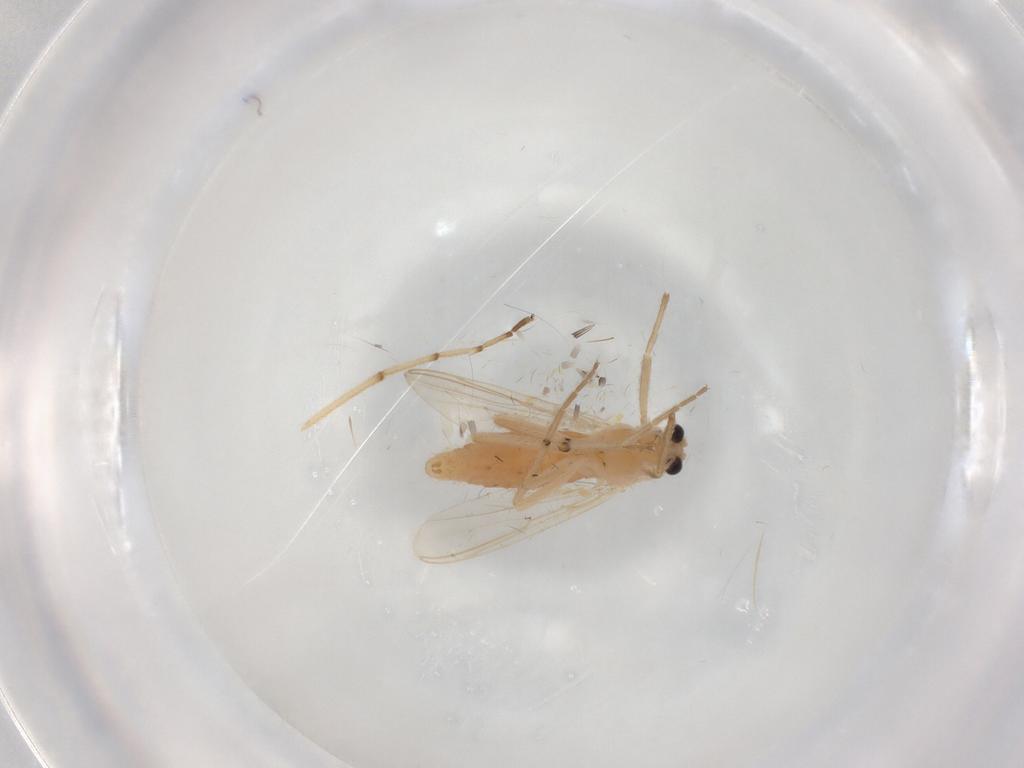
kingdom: Animalia
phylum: Arthropoda
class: Insecta
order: Diptera
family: Chironomidae
